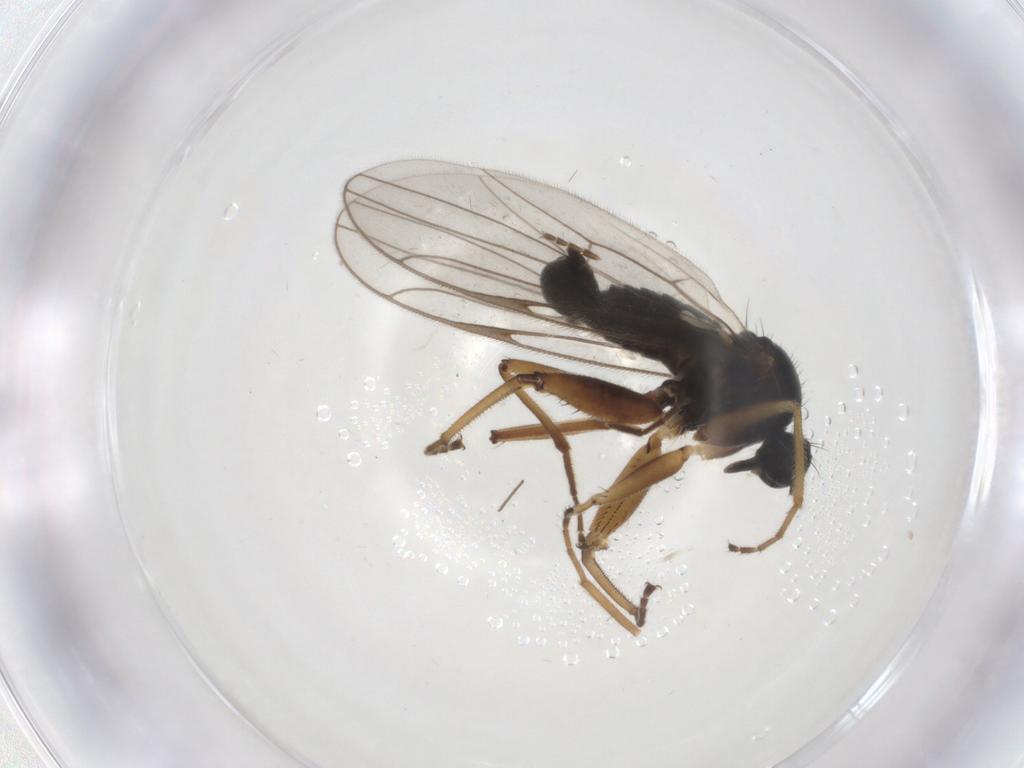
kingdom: Animalia
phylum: Arthropoda
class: Insecta
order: Diptera
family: Hybotidae
